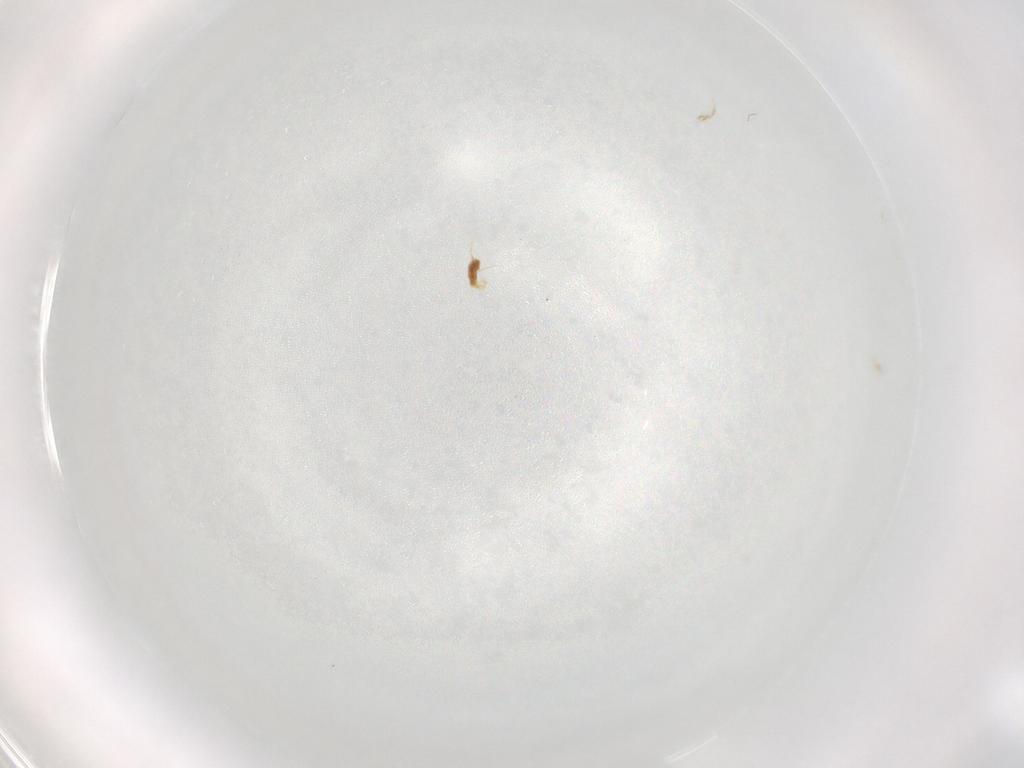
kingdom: Animalia
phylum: Arthropoda
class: Arachnida
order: Trombidiformes
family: Eupodidae
